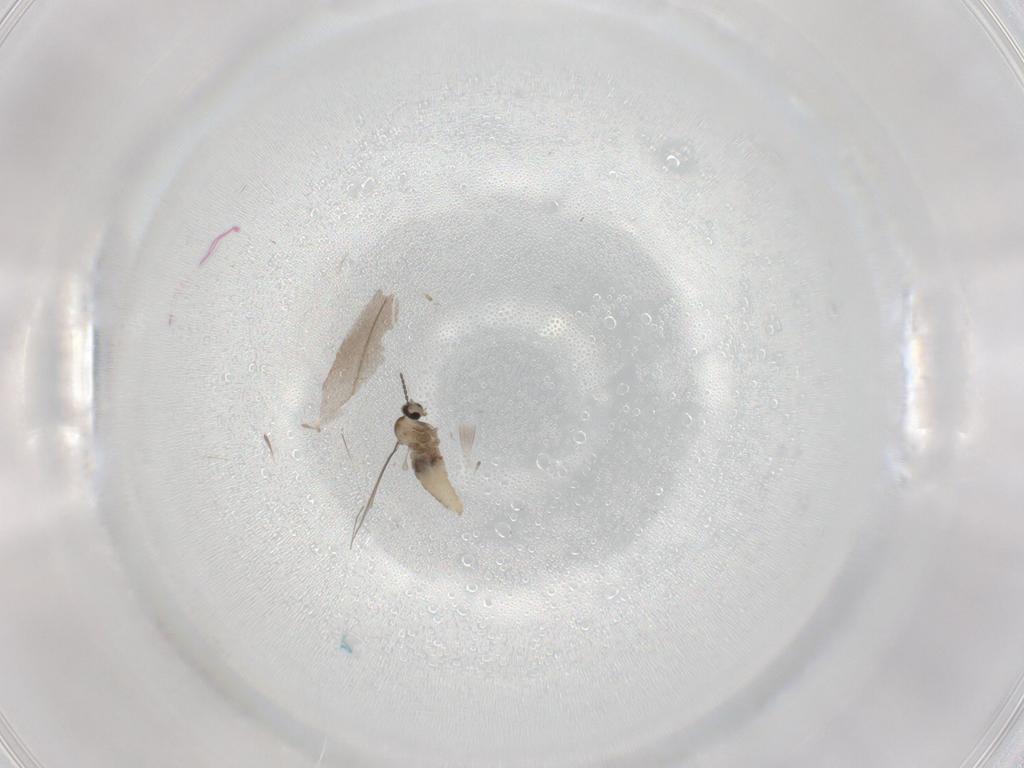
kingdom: Animalia
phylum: Arthropoda
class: Insecta
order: Diptera
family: Chironomidae
